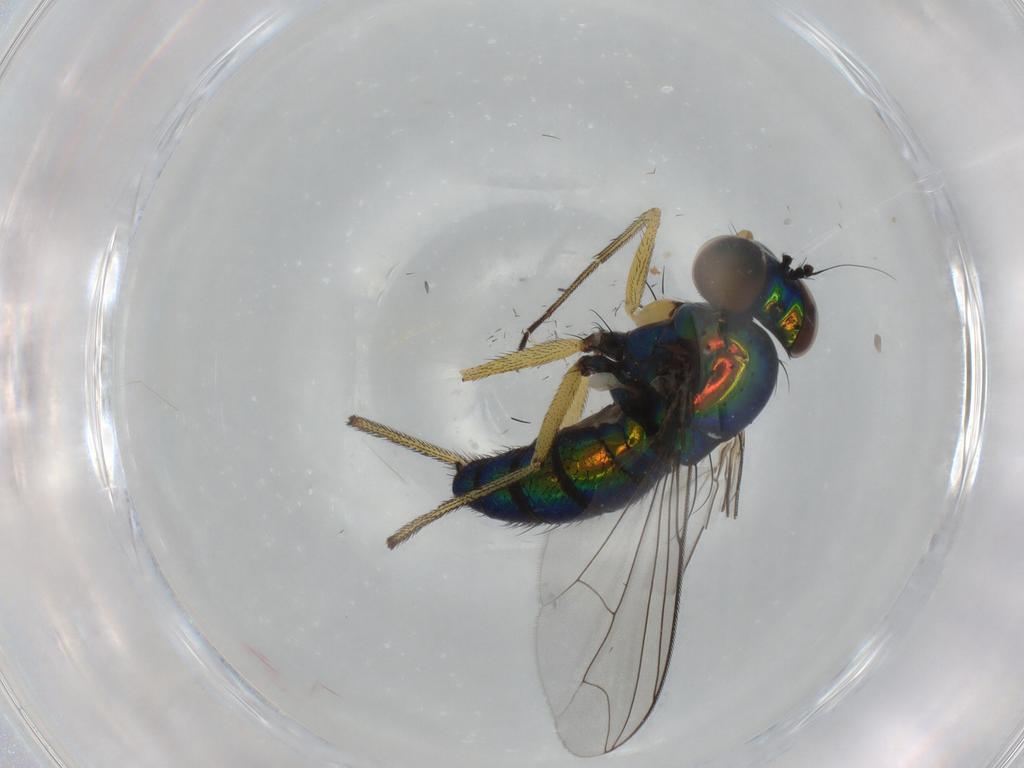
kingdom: Animalia
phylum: Arthropoda
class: Insecta
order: Diptera
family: Dolichopodidae
